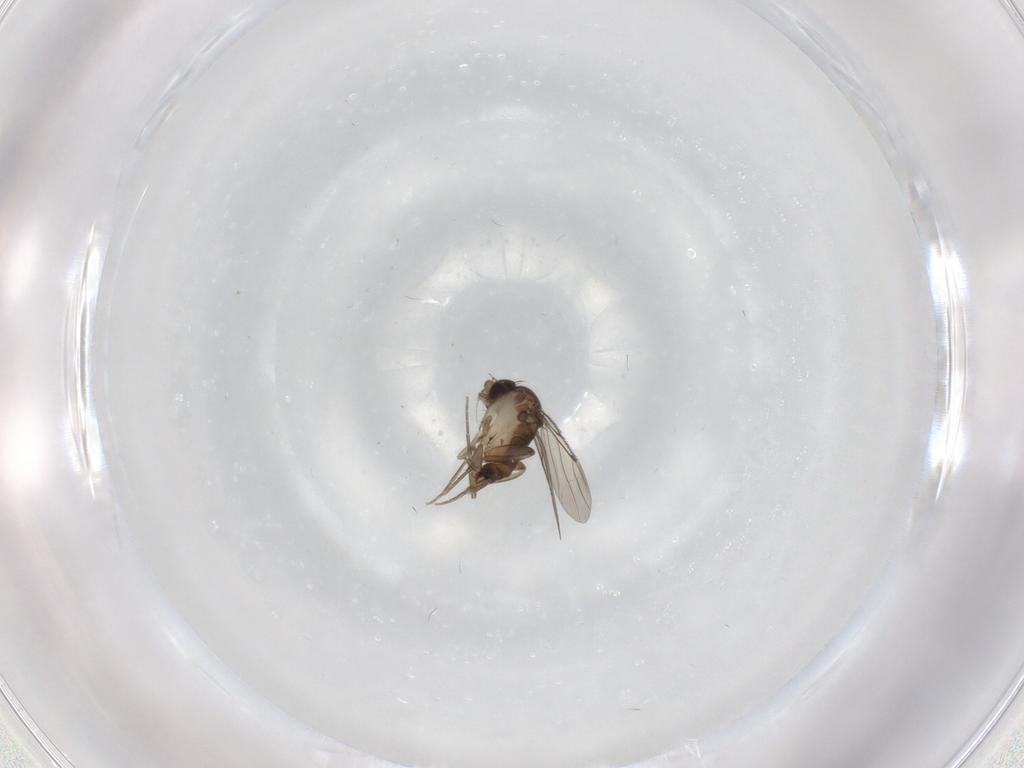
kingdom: Animalia
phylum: Arthropoda
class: Insecta
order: Diptera
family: Phoridae
